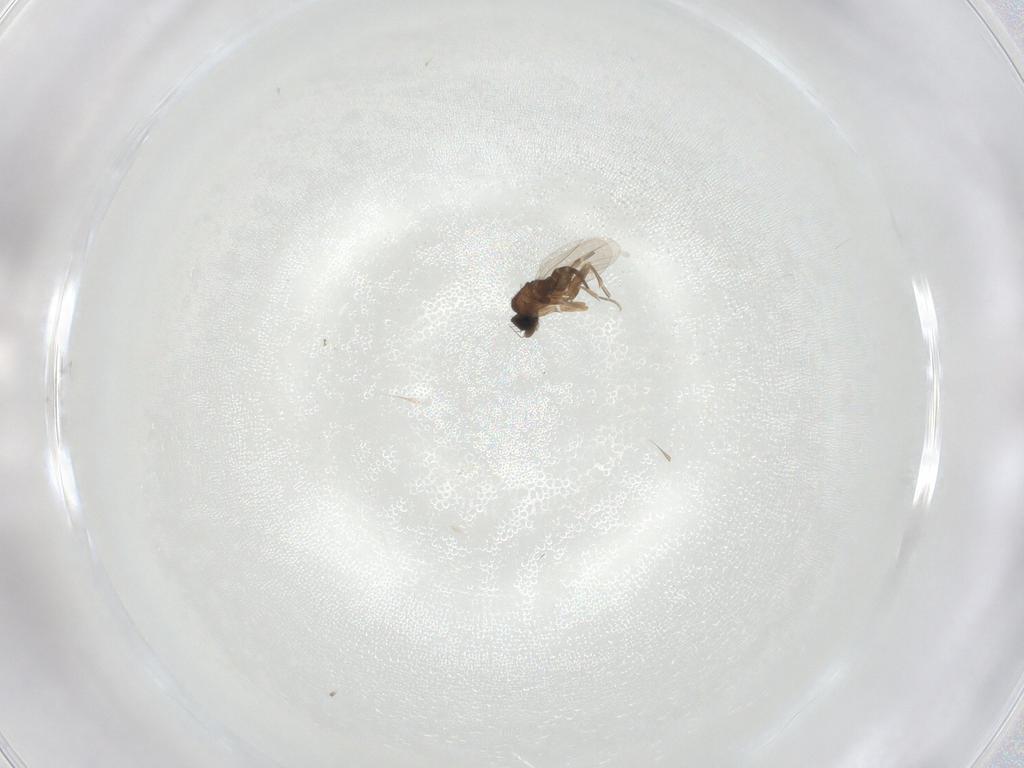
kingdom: Animalia
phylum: Arthropoda
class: Insecta
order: Diptera
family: Phoridae
